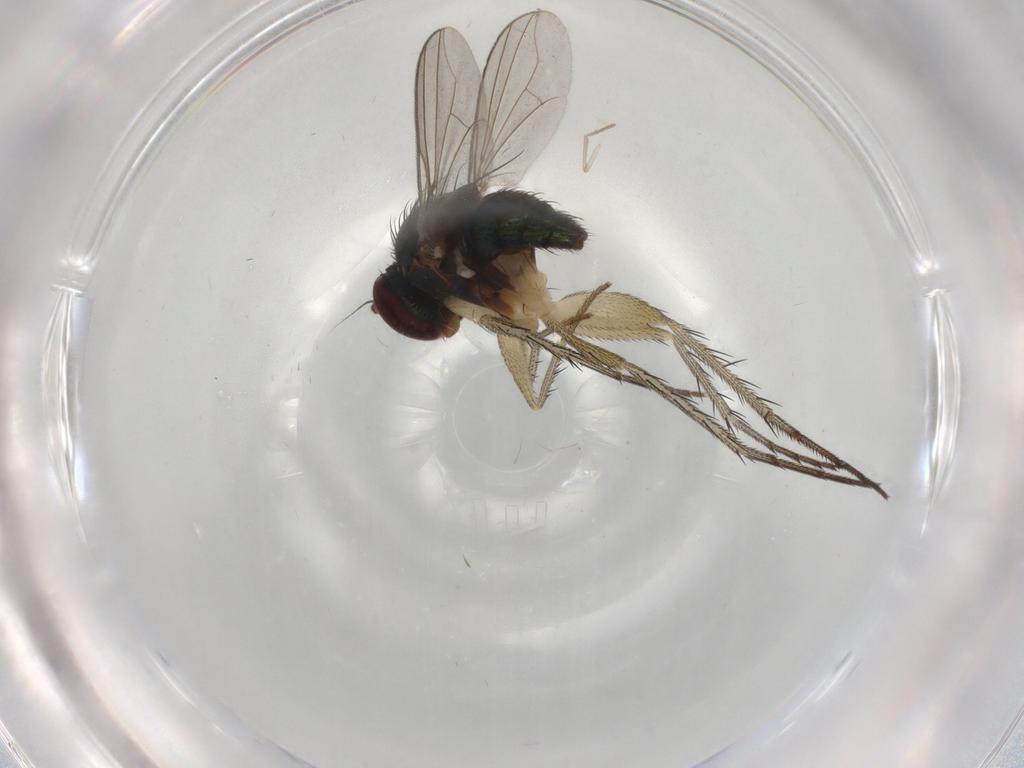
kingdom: Animalia
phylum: Arthropoda
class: Insecta
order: Diptera
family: Dolichopodidae
